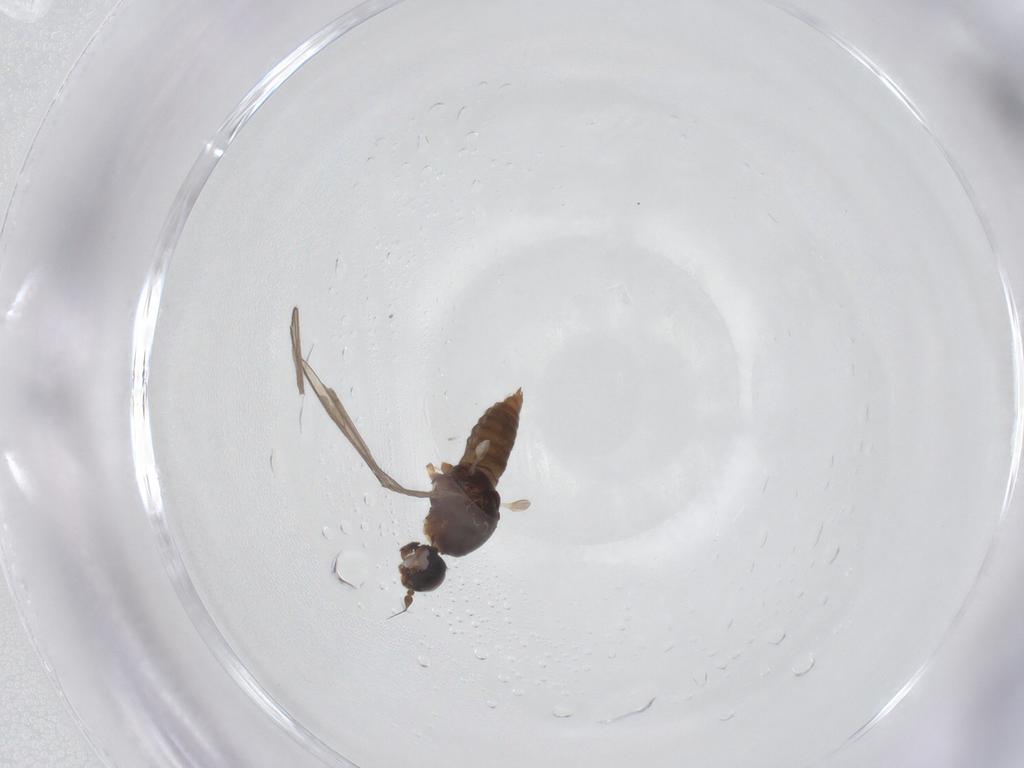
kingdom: Animalia
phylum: Arthropoda
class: Insecta
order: Diptera
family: Empididae
